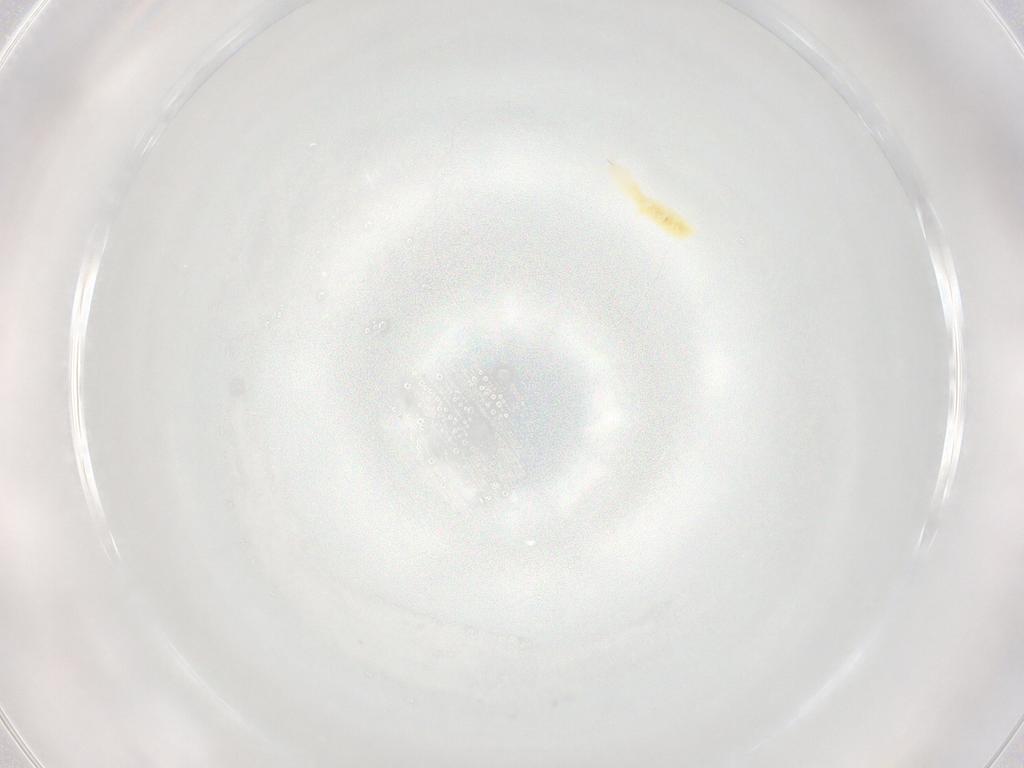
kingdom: Animalia
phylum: Arthropoda
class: Collembola
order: Poduromorpha
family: Onychiuridae
